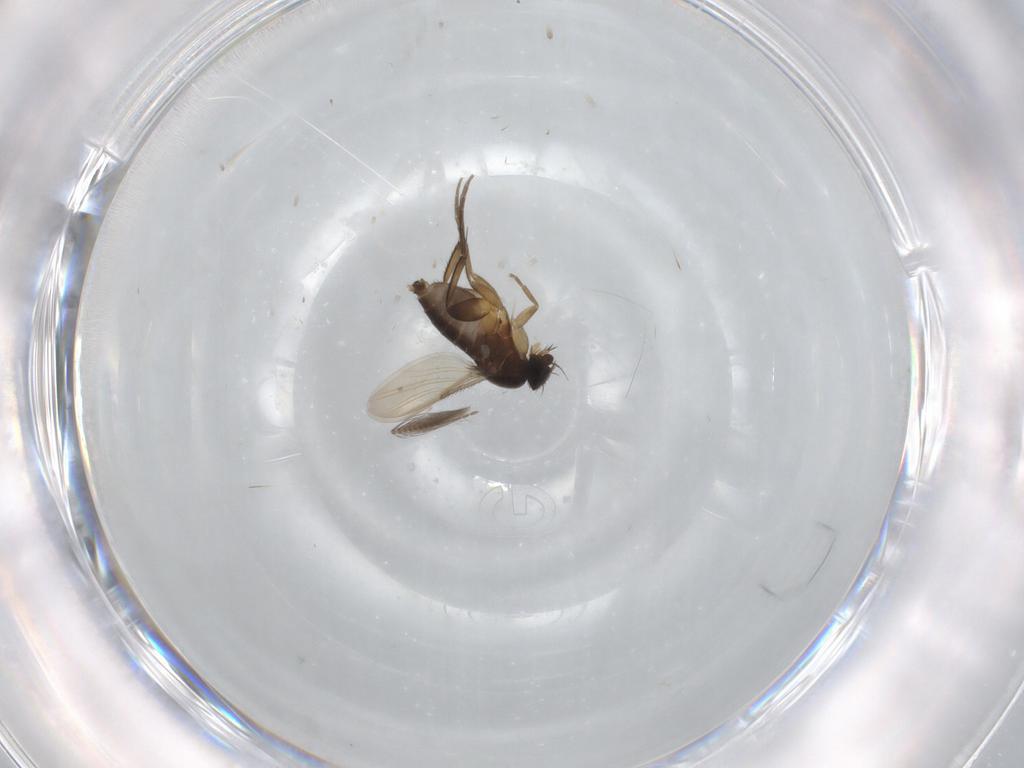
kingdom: Animalia
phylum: Arthropoda
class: Insecta
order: Diptera
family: Phoridae
